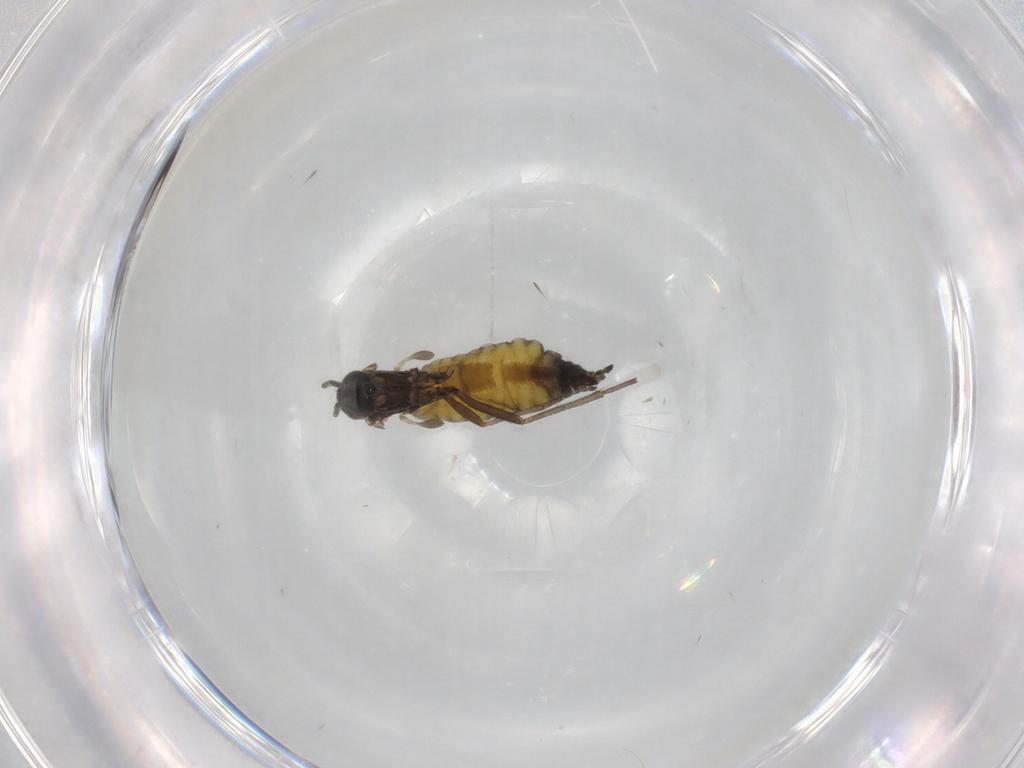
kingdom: Animalia
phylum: Arthropoda
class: Insecta
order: Diptera
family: Sciaridae
